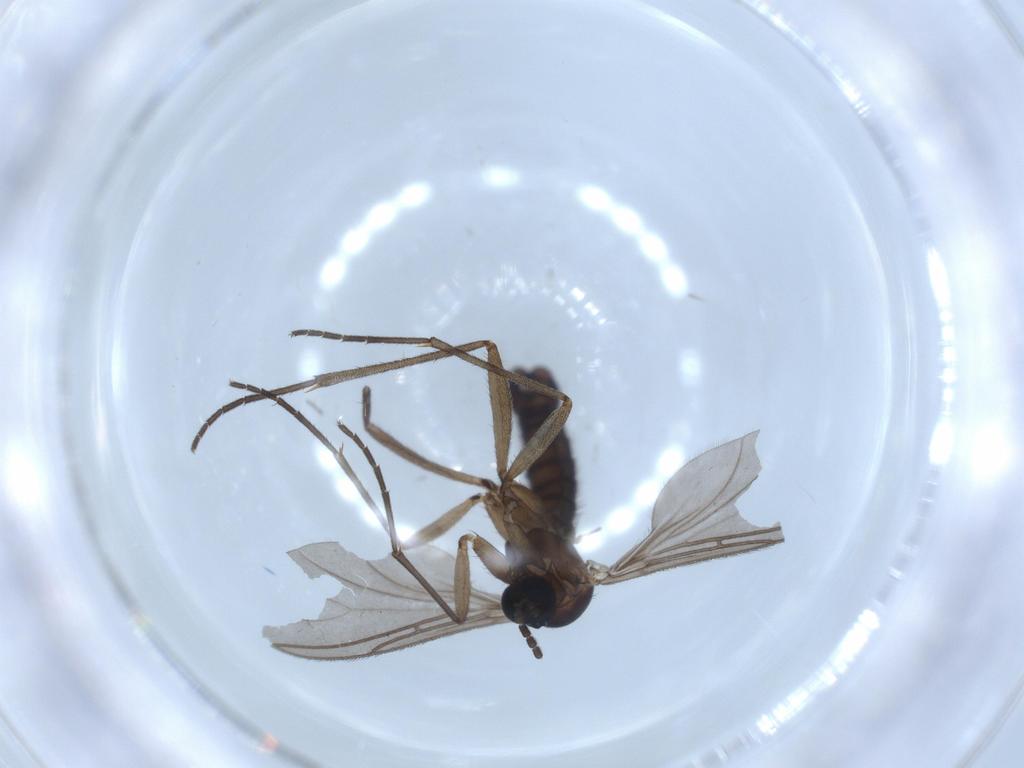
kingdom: Animalia
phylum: Arthropoda
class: Insecta
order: Diptera
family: Sciaridae
